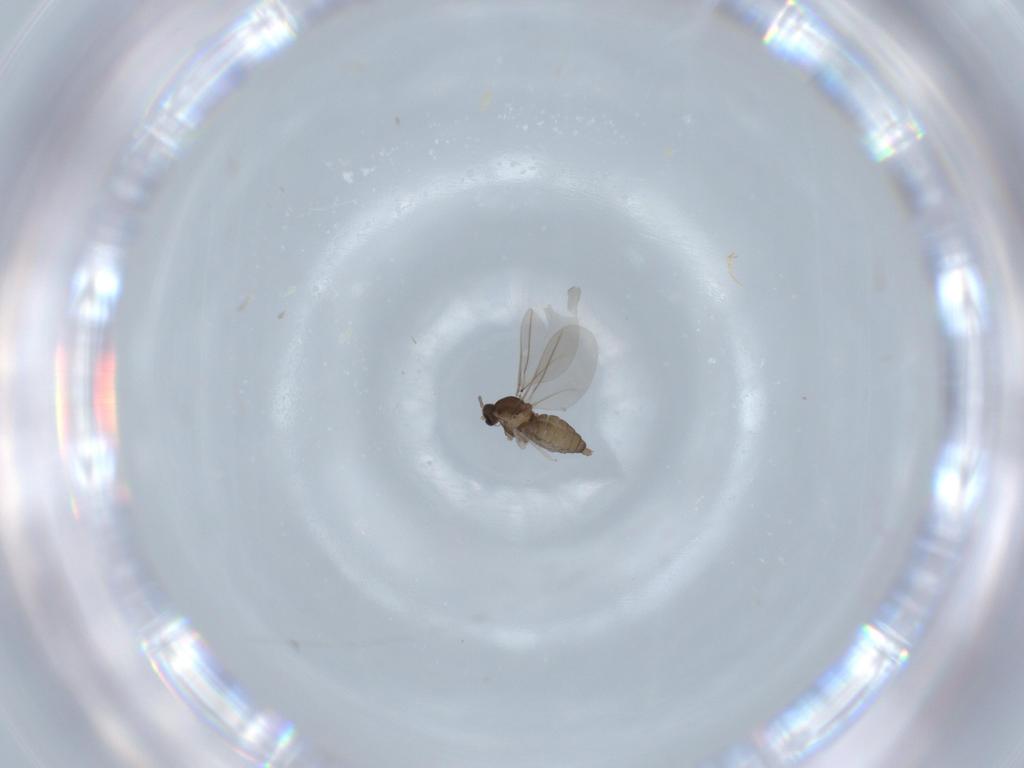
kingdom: Animalia
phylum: Arthropoda
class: Insecta
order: Diptera
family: Cecidomyiidae
